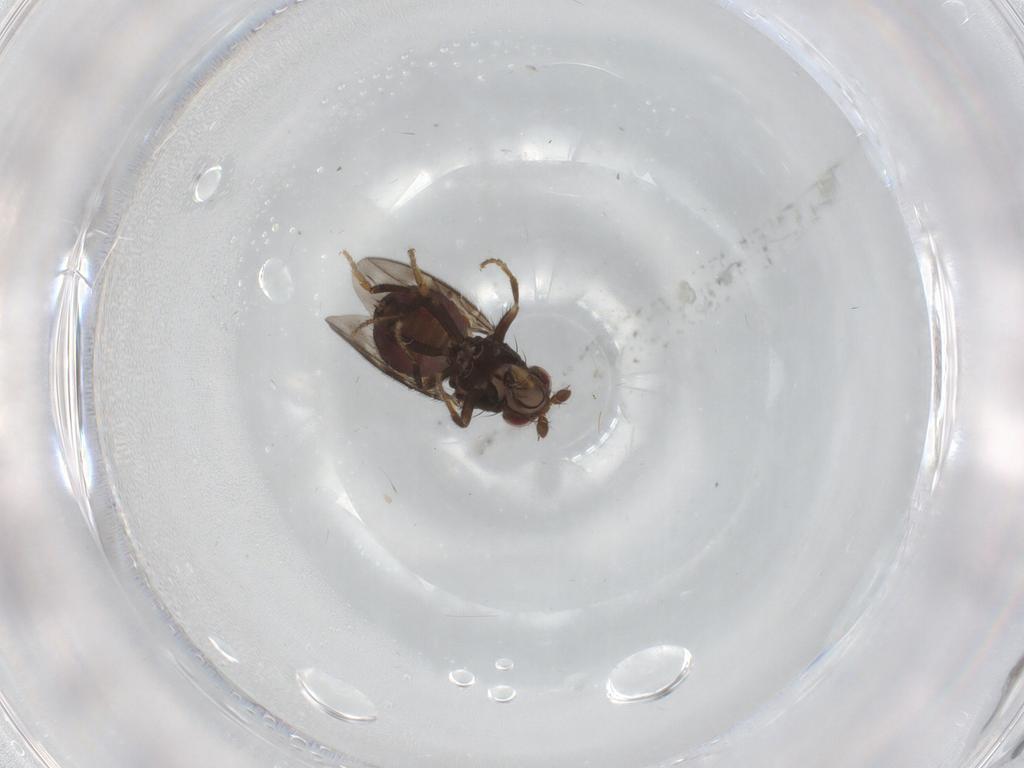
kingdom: Animalia
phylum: Arthropoda
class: Insecta
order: Diptera
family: Sphaeroceridae
